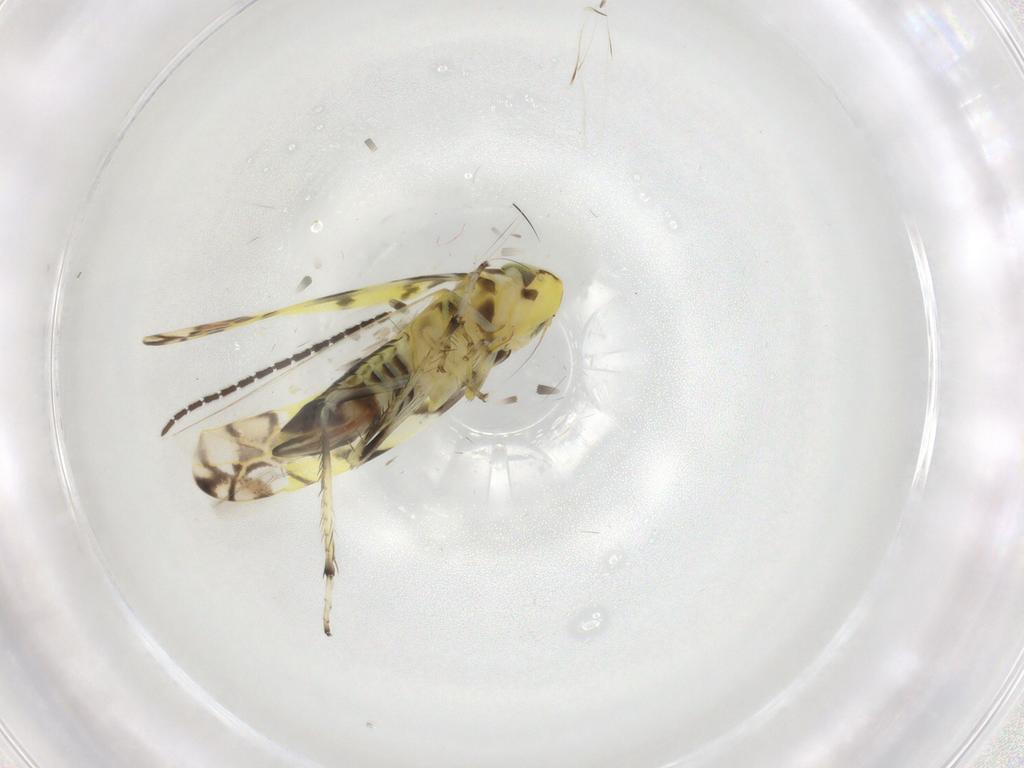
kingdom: Animalia
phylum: Arthropoda
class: Insecta
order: Hemiptera
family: Cicadellidae
